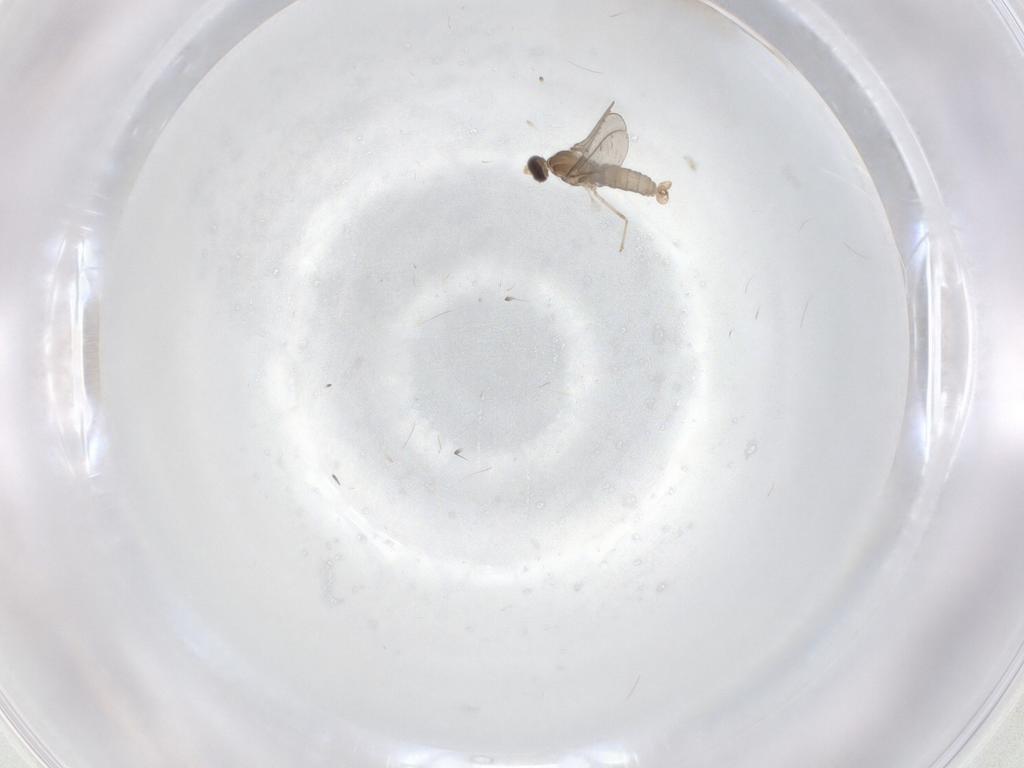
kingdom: Animalia
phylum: Arthropoda
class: Insecta
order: Diptera
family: Cecidomyiidae
